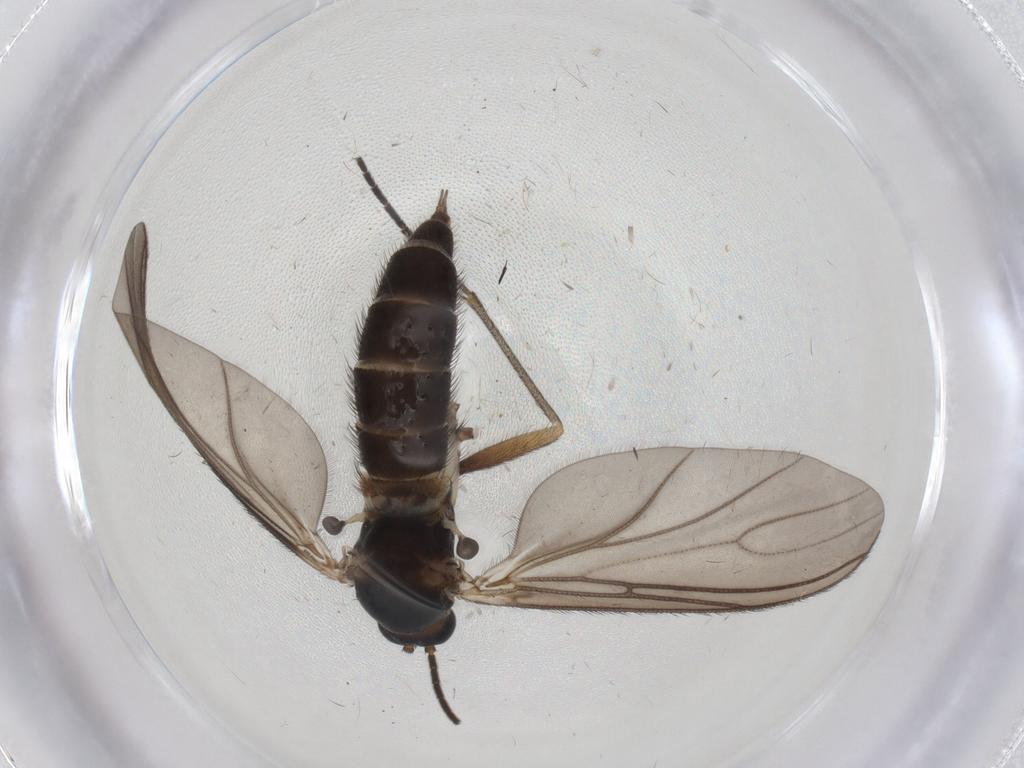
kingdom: Animalia
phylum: Arthropoda
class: Insecta
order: Diptera
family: Sciaridae
